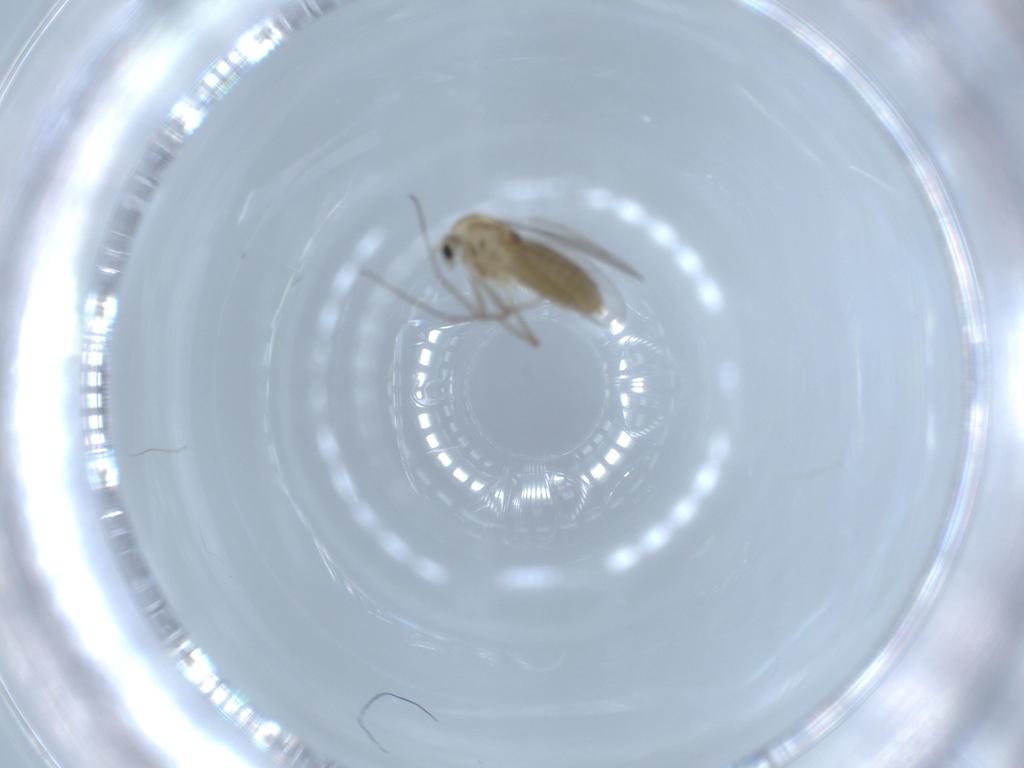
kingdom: Animalia
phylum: Arthropoda
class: Insecta
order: Diptera
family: Chironomidae
